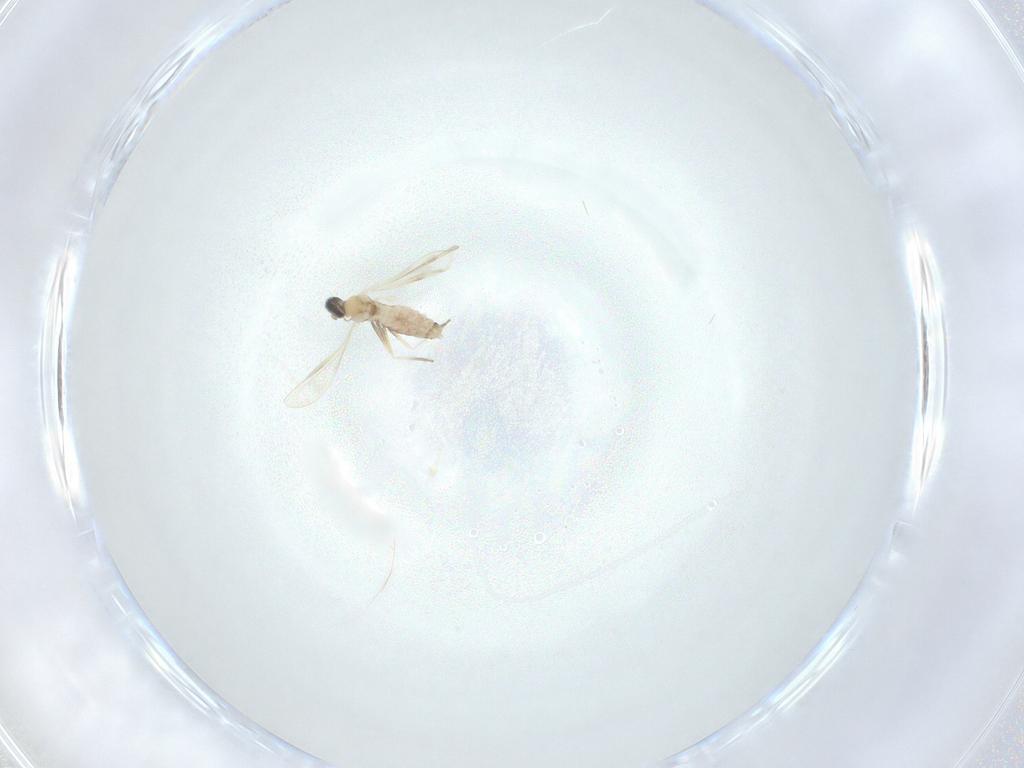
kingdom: Animalia
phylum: Arthropoda
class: Insecta
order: Diptera
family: Cecidomyiidae
